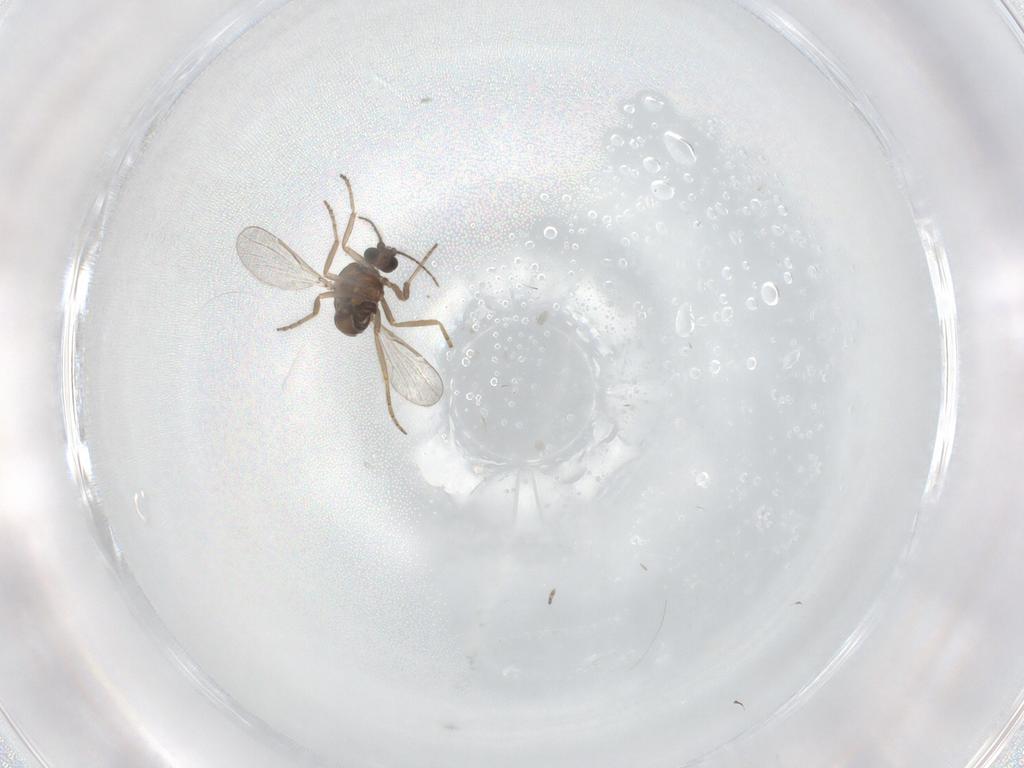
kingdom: Animalia
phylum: Arthropoda
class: Insecta
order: Diptera
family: Ceratopogonidae
